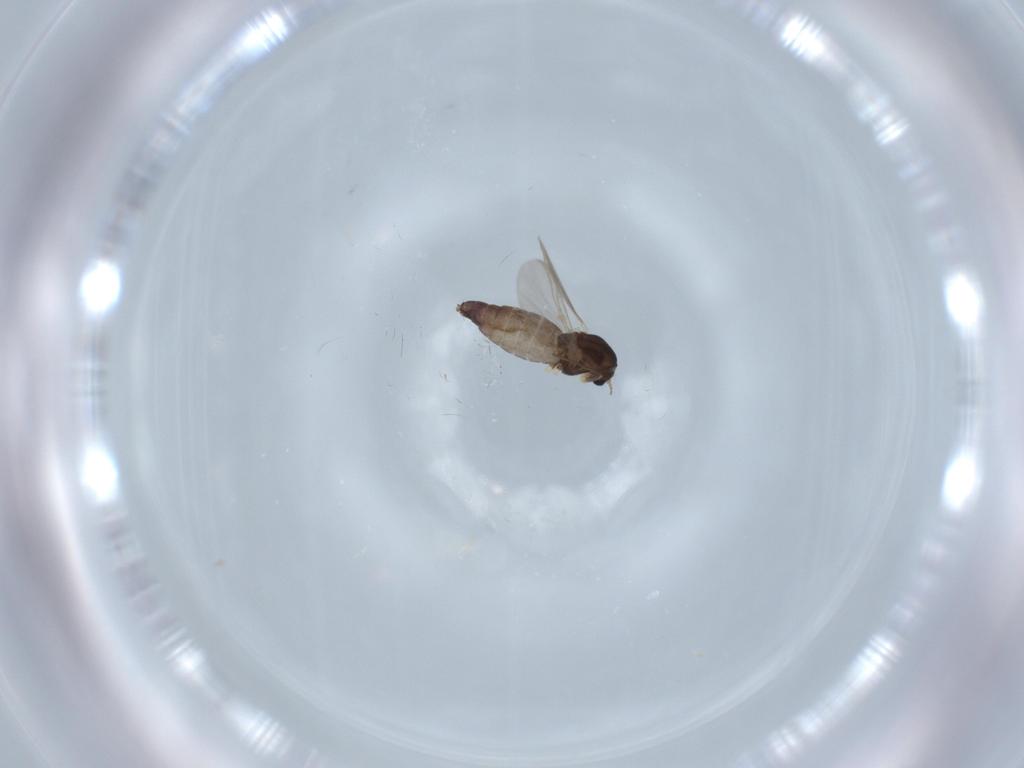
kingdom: Animalia
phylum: Arthropoda
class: Insecta
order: Diptera
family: Chironomidae
